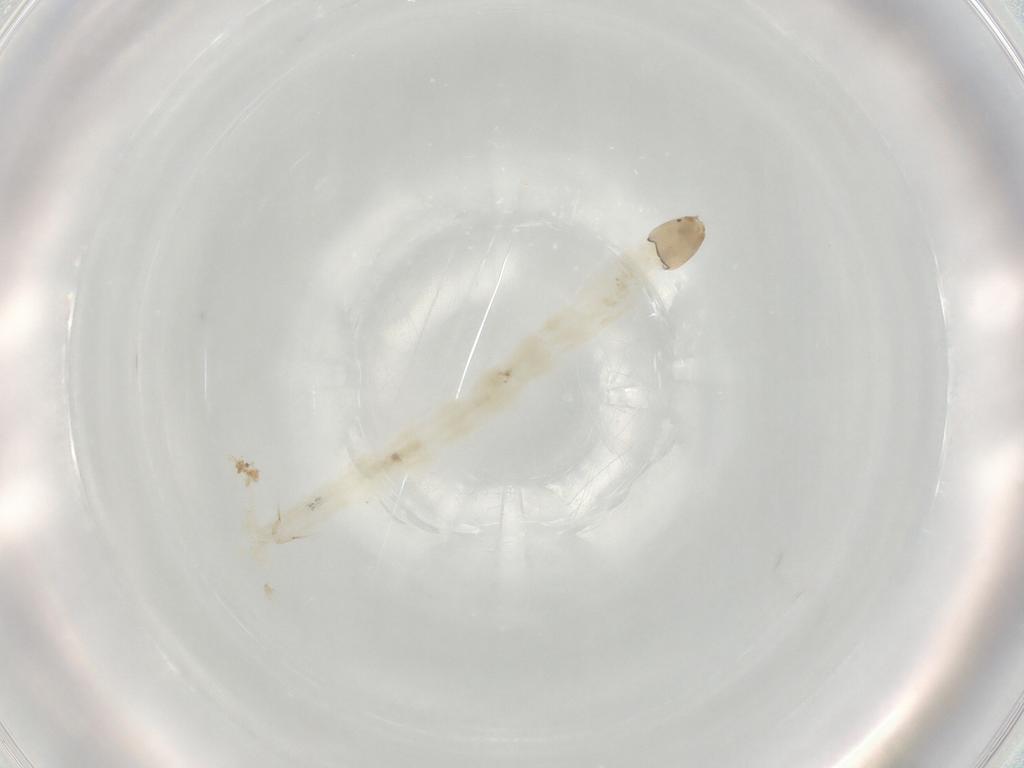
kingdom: Animalia
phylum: Arthropoda
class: Insecta
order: Diptera
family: Chironomidae
